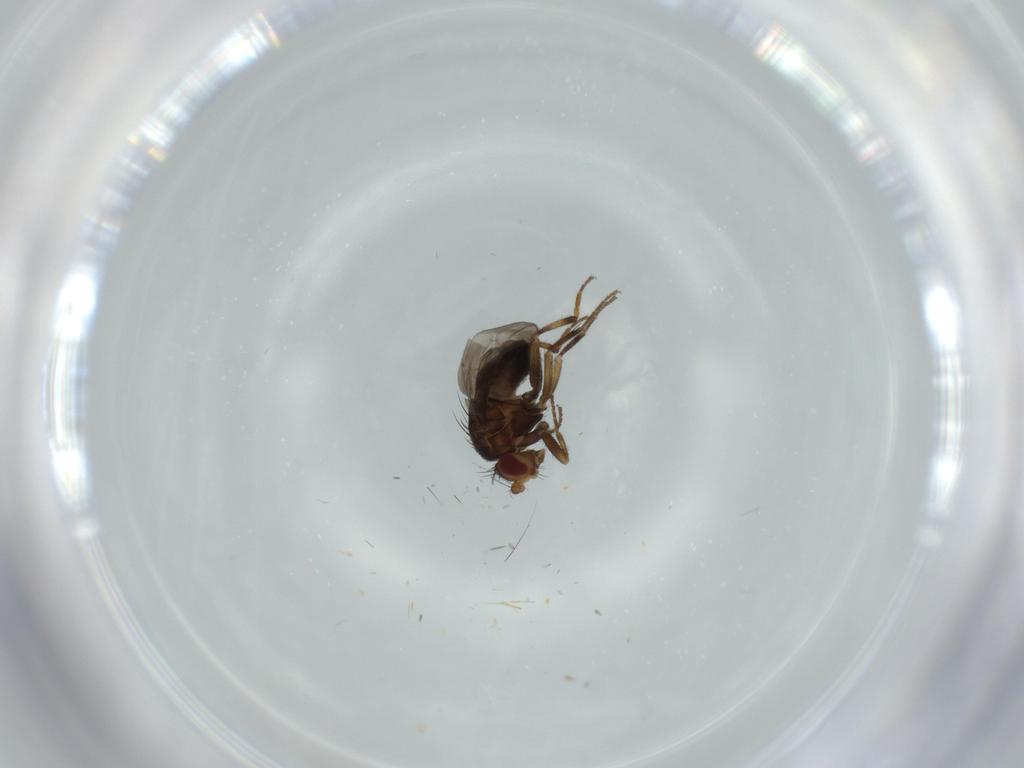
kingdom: Animalia
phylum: Arthropoda
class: Insecta
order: Diptera
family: Sphaeroceridae
